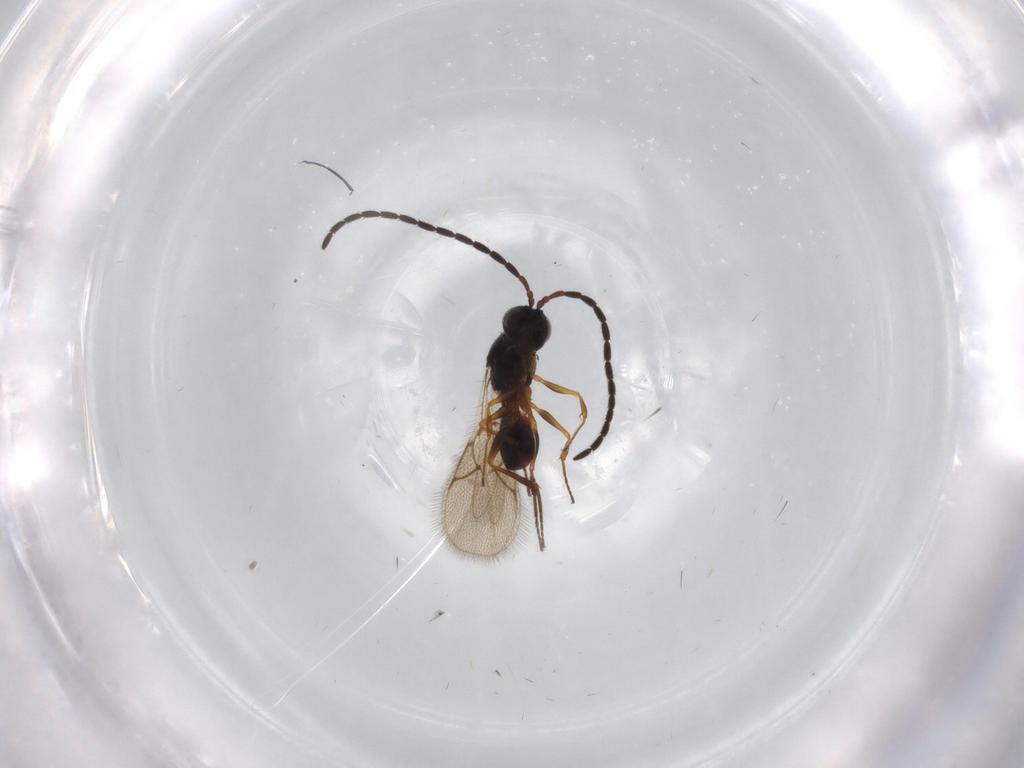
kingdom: Animalia
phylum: Arthropoda
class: Insecta
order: Hymenoptera
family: Figitidae
